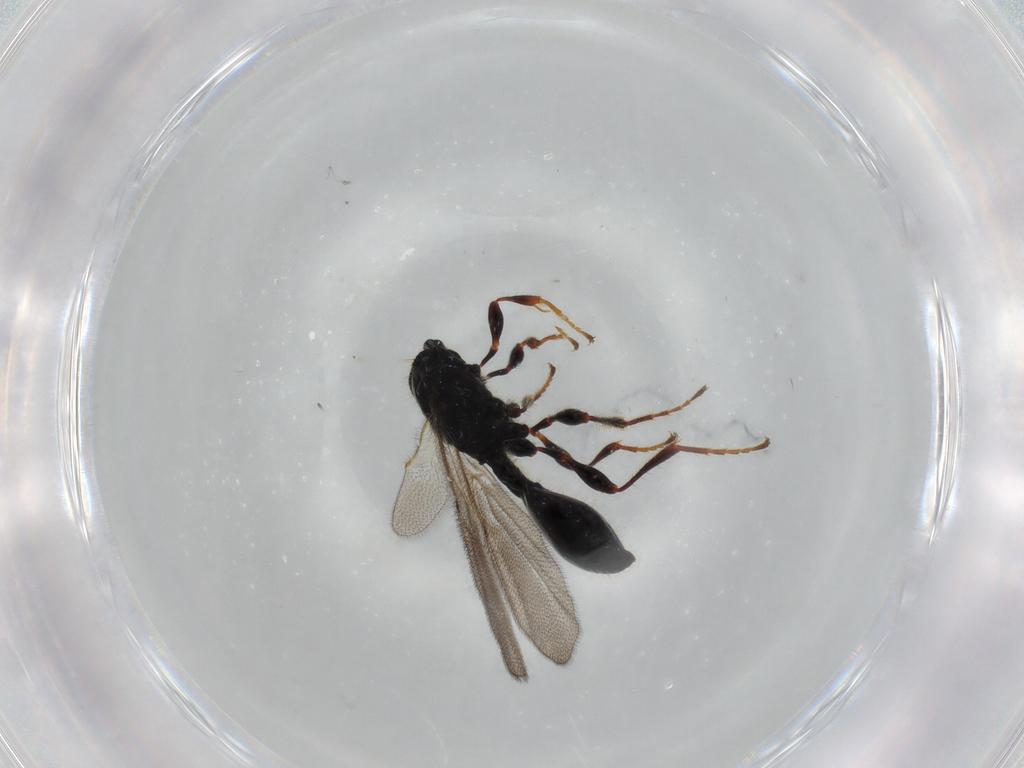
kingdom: Animalia
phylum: Arthropoda
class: Insecta
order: Hymenoptera
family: Diapriidae
